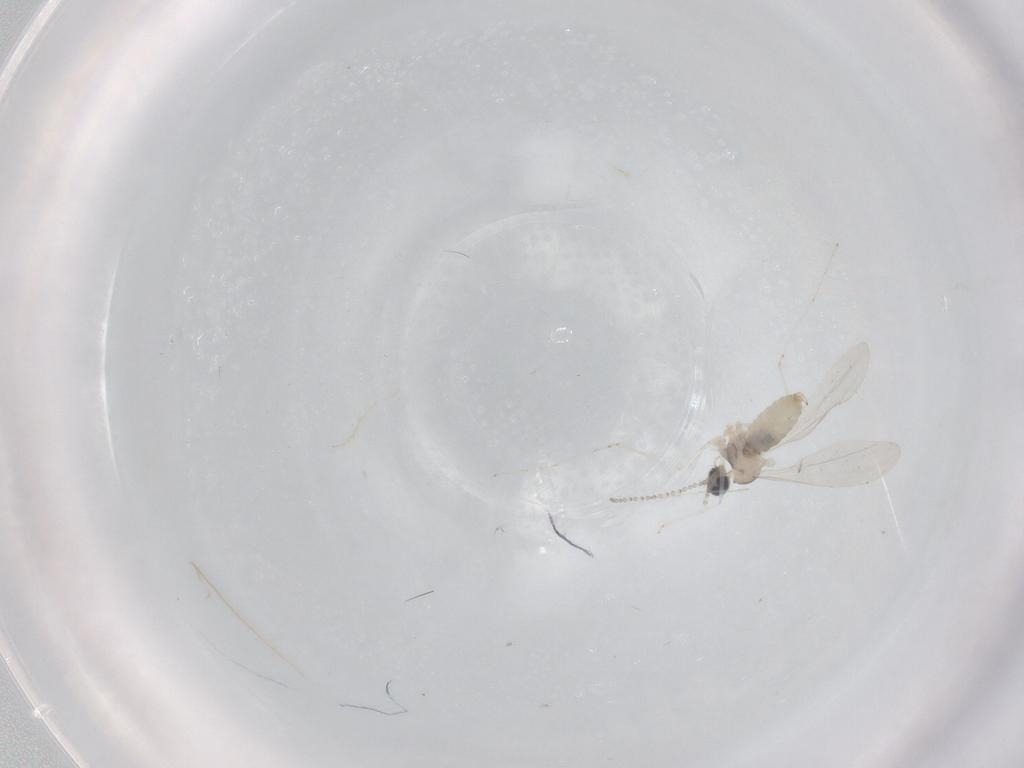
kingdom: Animalia
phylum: Arthropoda
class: Insecta
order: Diptera
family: Cecidomyiidae
